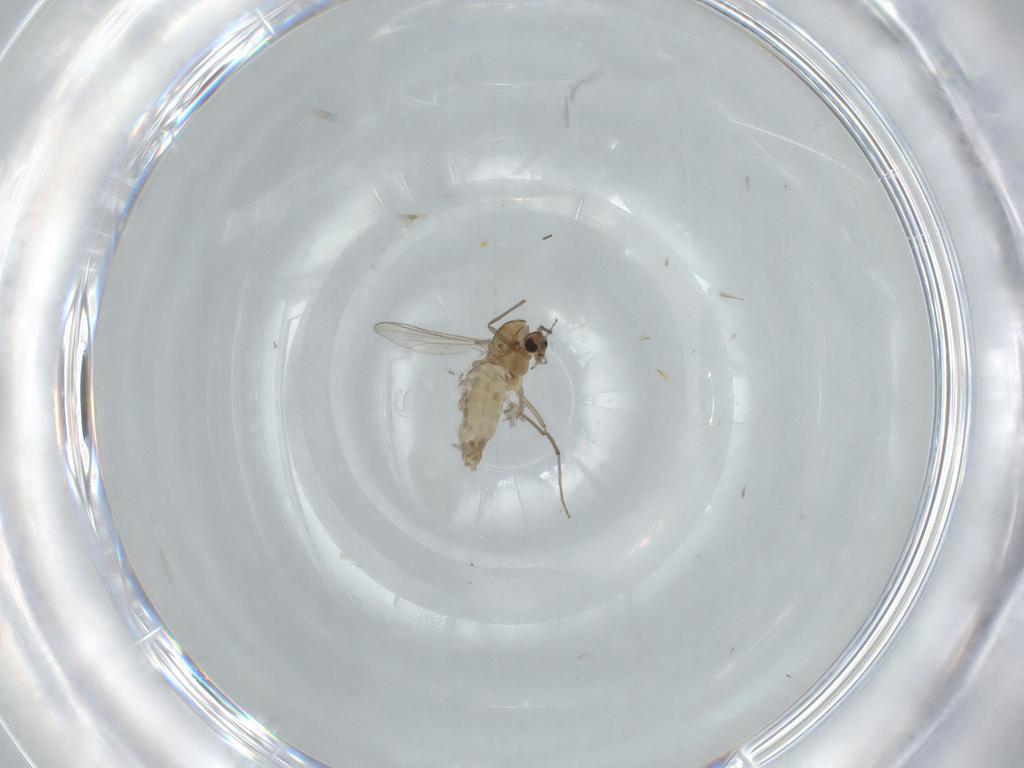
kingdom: Animalia
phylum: Arthropoda
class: Insecta
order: Diptera
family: Chironomidae
